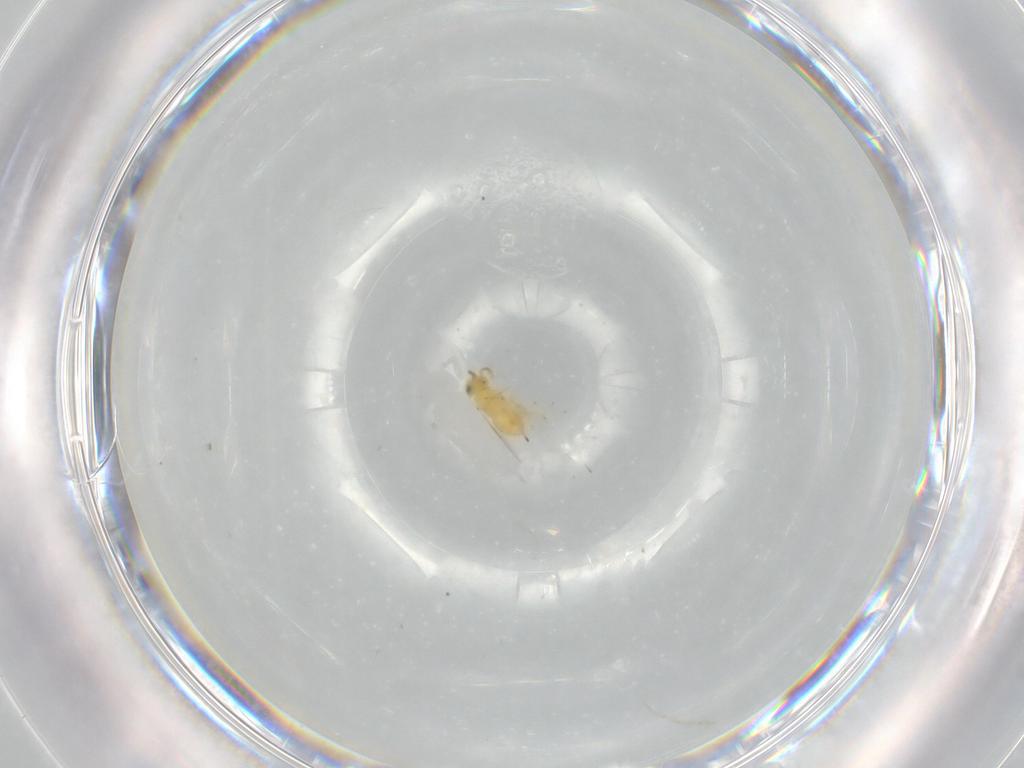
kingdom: Animalia
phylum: Arthropoda
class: Insecta
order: Hymenoptera
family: Encyrtidae
